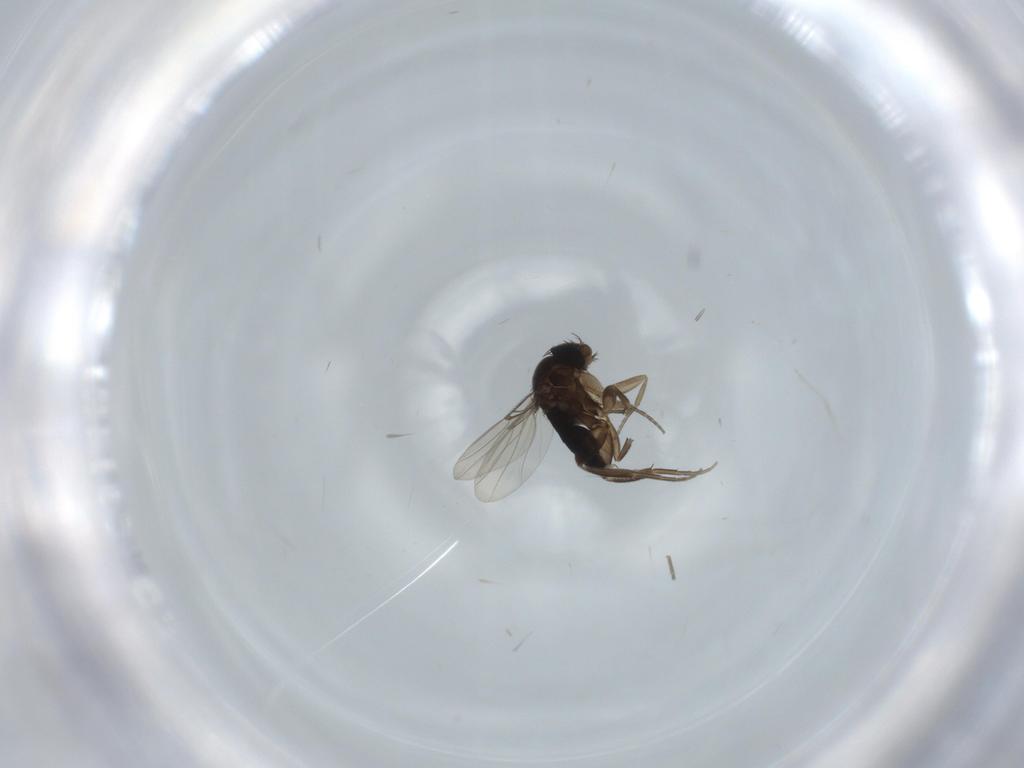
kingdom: Animalia
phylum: Arthropoda
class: Insecta
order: Diptera
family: Phoridae
